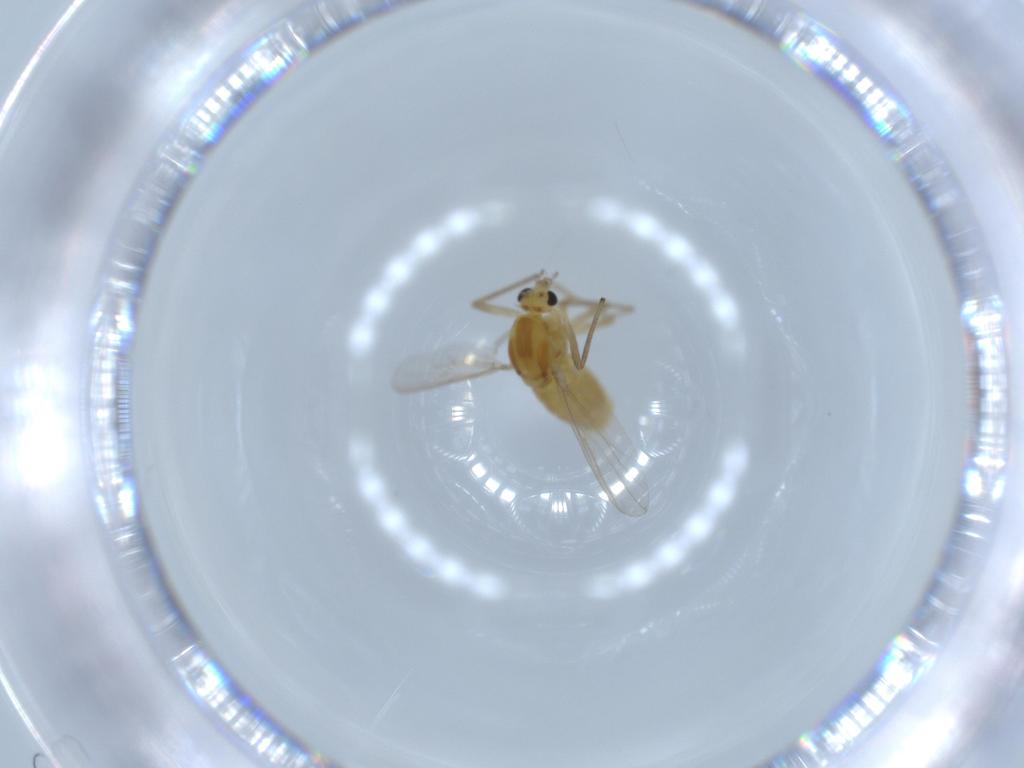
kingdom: Animalia
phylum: Arthropoda
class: Insecta
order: Diptera
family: Chironomidae
